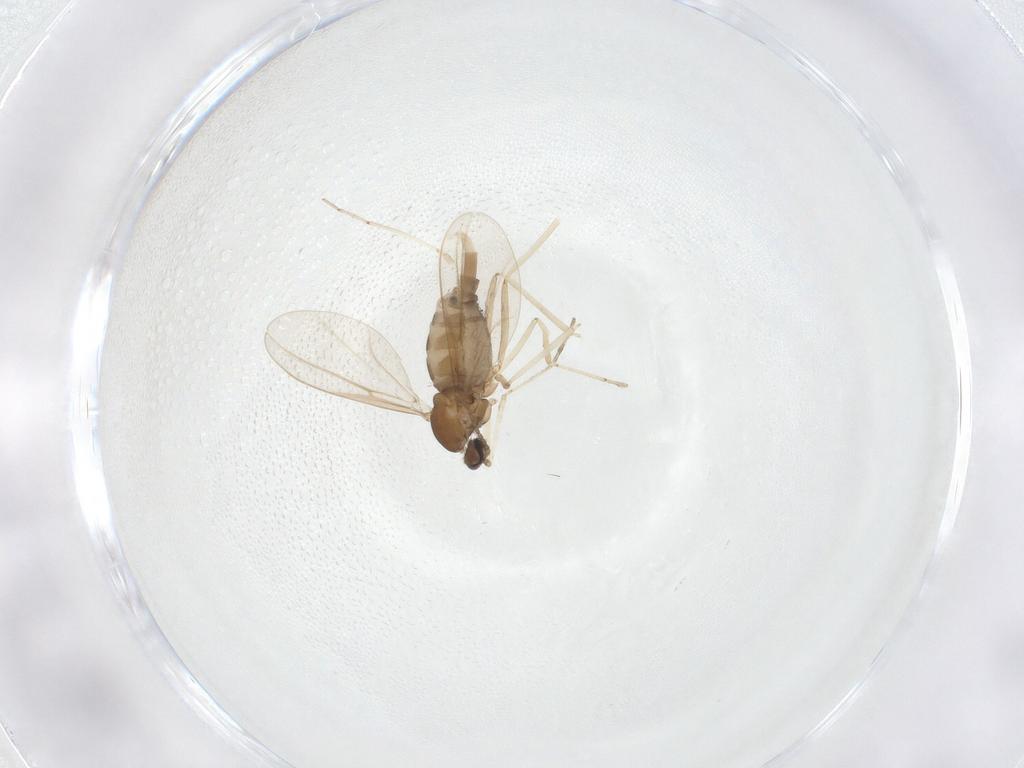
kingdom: Animalia
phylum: Arthropoda
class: Insecta
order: Diptera
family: Cecidomyiidae
